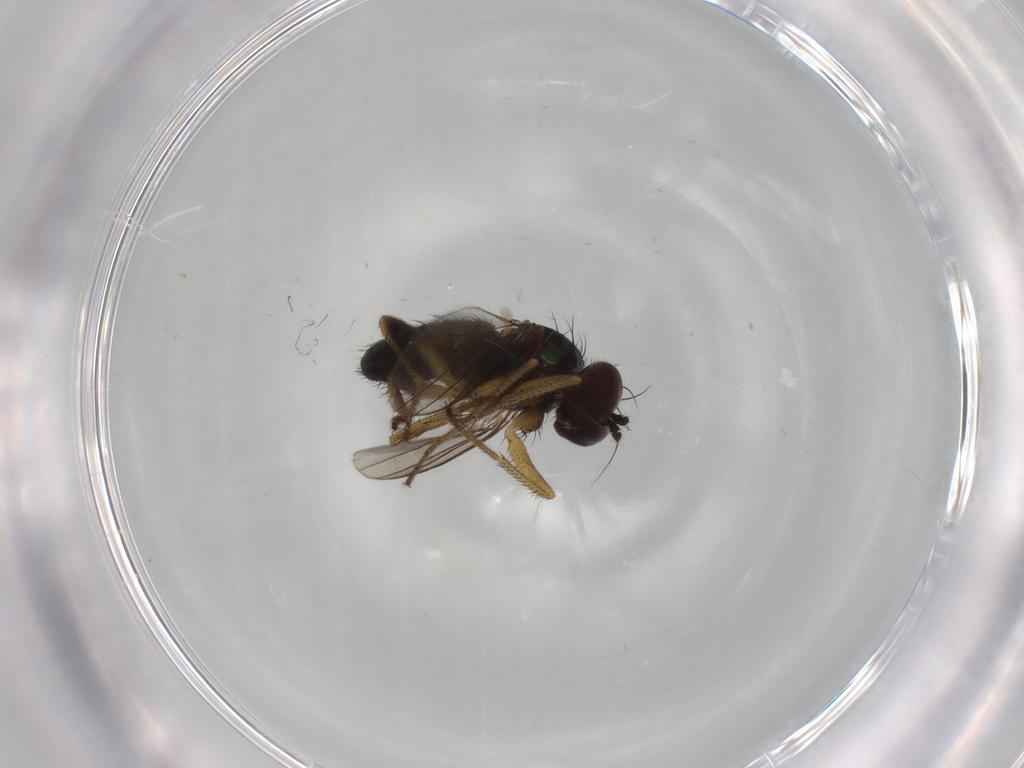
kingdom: Animalia
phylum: Arthropoda
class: Insecta
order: Diptera
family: Dolichopodidae
